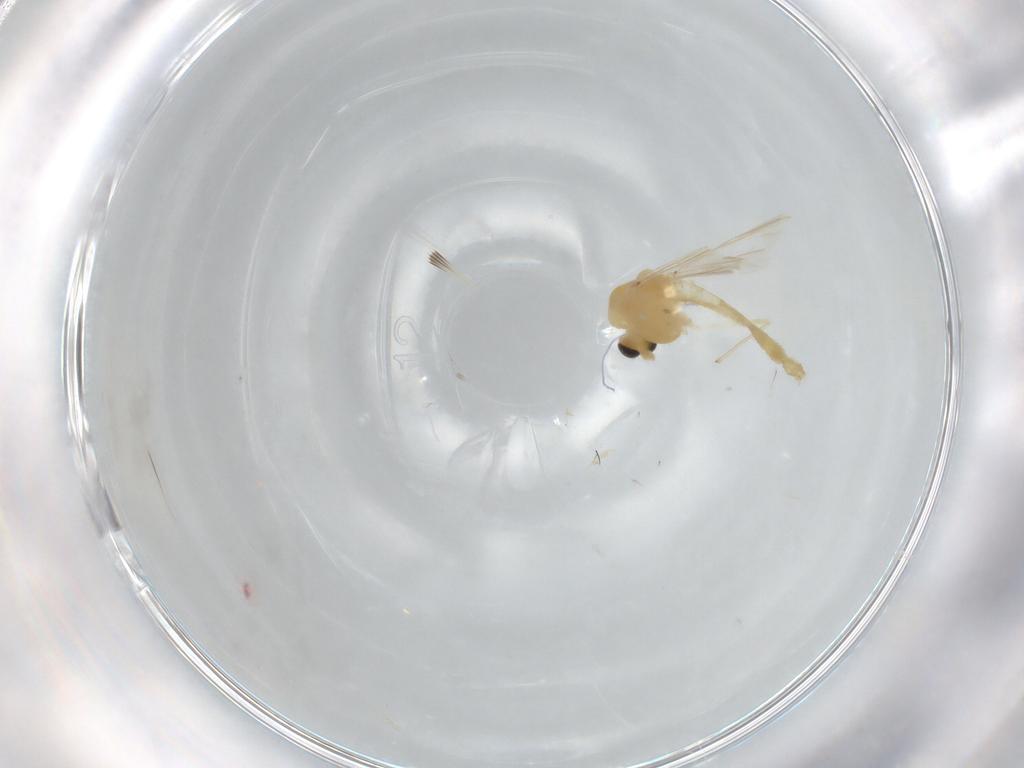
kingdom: Animalia
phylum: Arthropoda
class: Insecta
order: Diptera
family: Chironomidae
